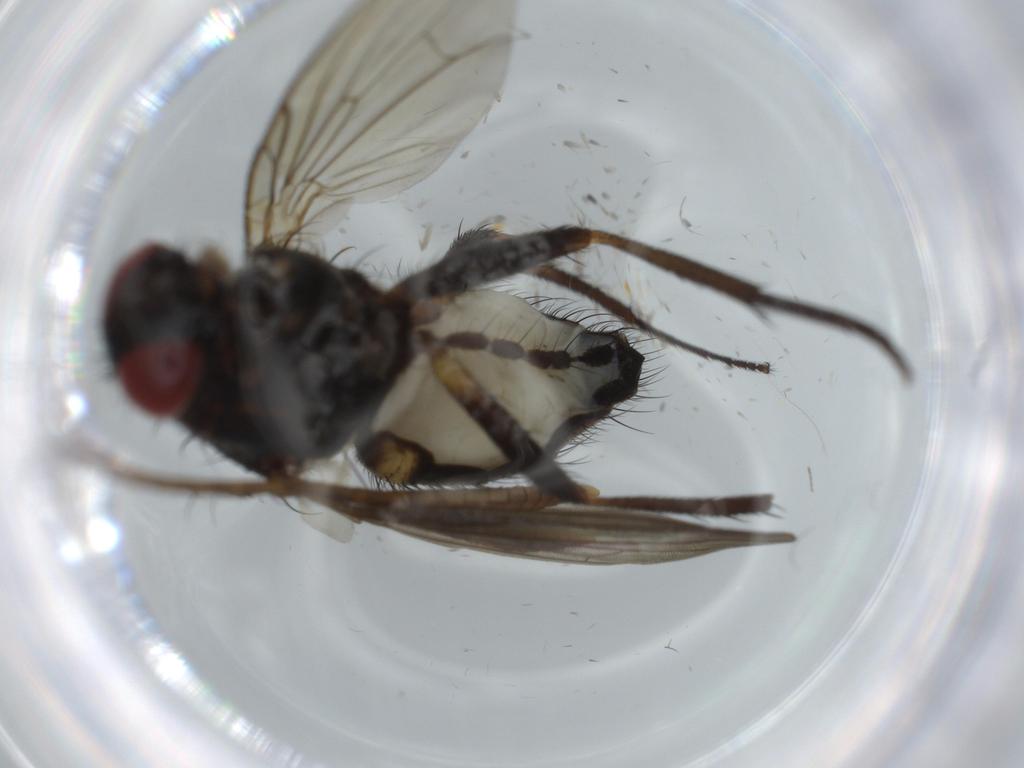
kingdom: Animalia
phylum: Arthropoda
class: Insecta
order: Diptera
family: Anthomyiidae
